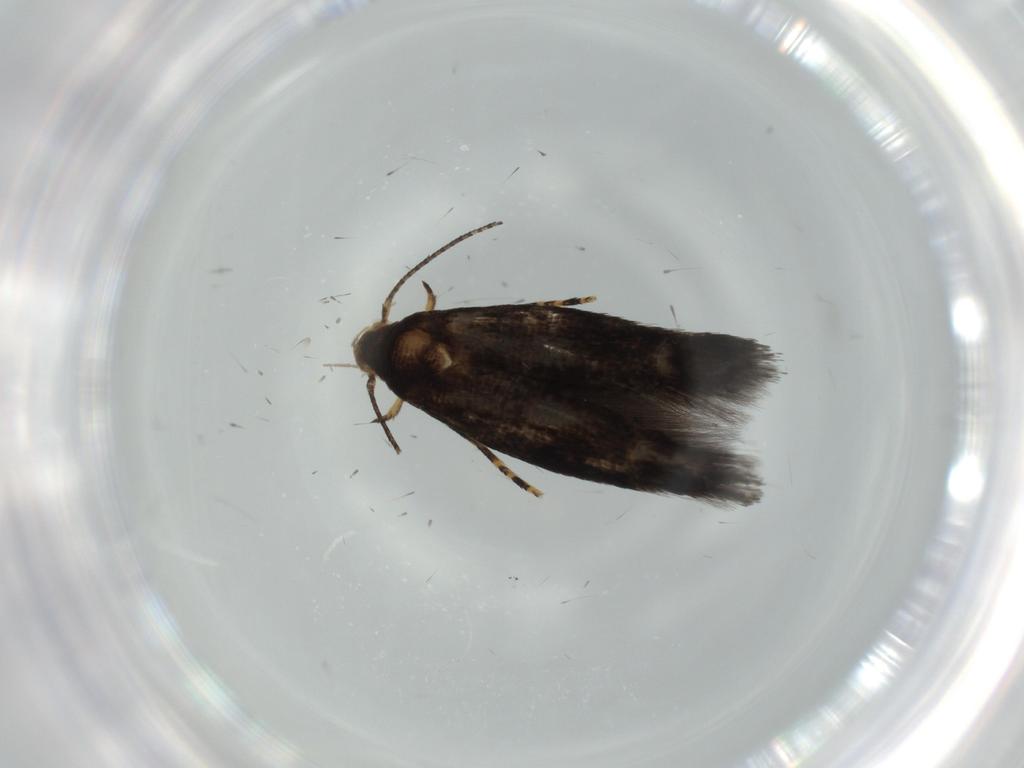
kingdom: Animalia
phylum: Arthropoda
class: Insecta
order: Lepidoptera
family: Momphidae
